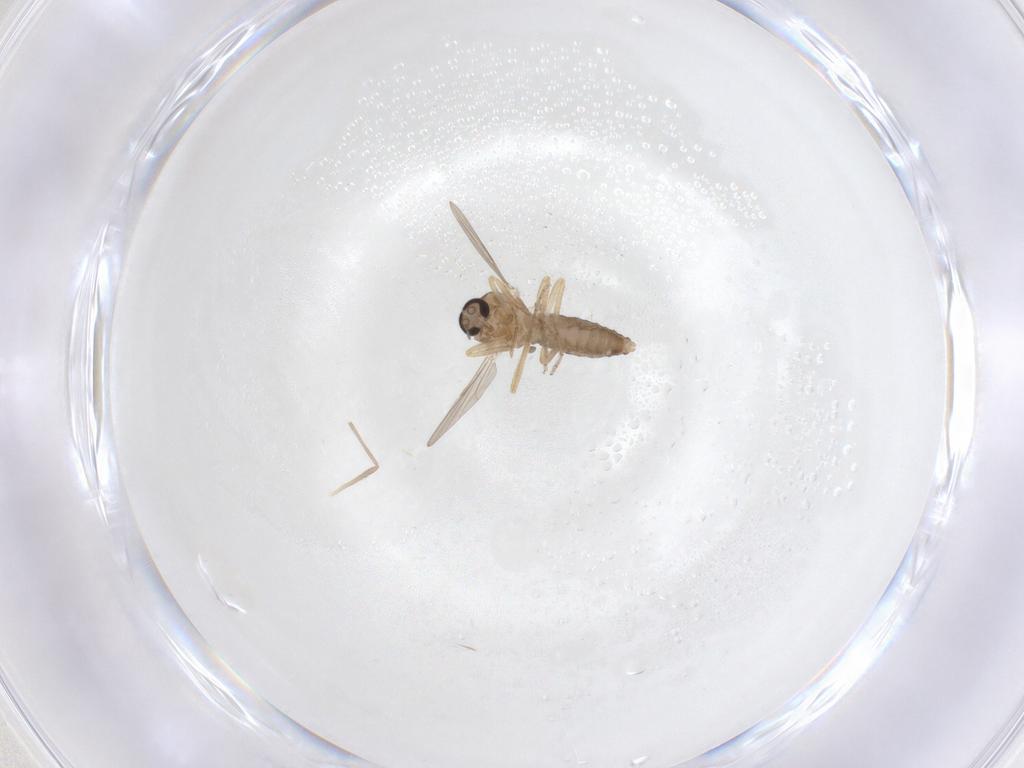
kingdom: Animalia
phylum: Arthropoda
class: Insecta
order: Diptera
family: Ceratopogonidae
